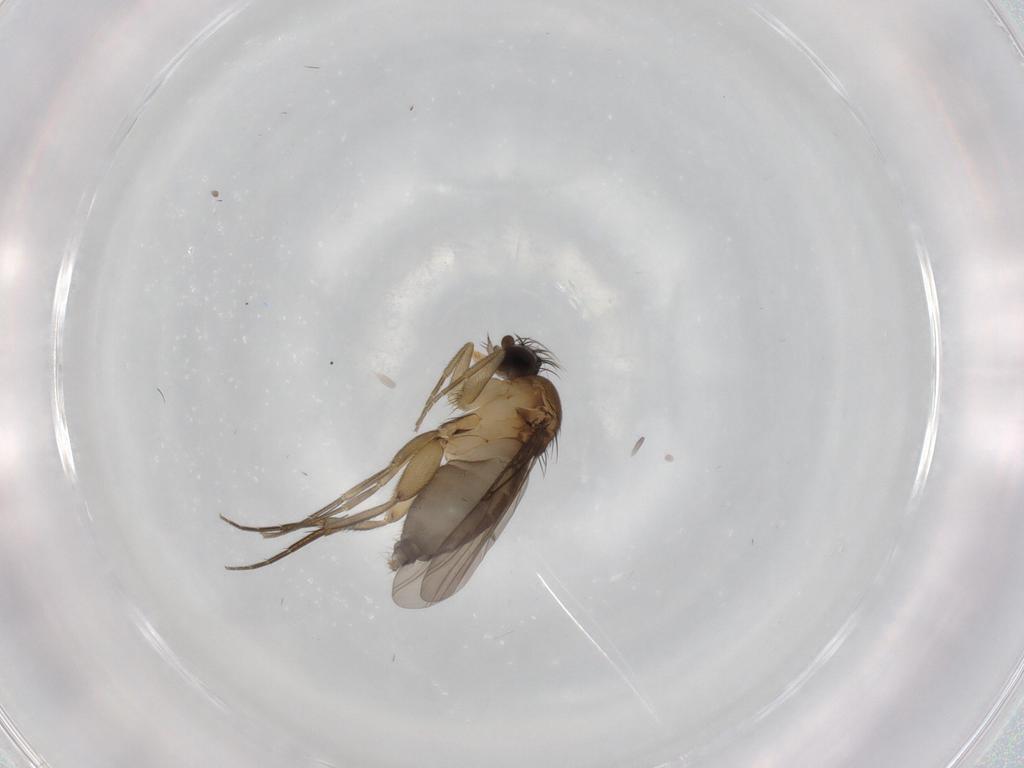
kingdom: Animalia
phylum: Arthropoda
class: Insecta
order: Diptera
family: Phoridae
